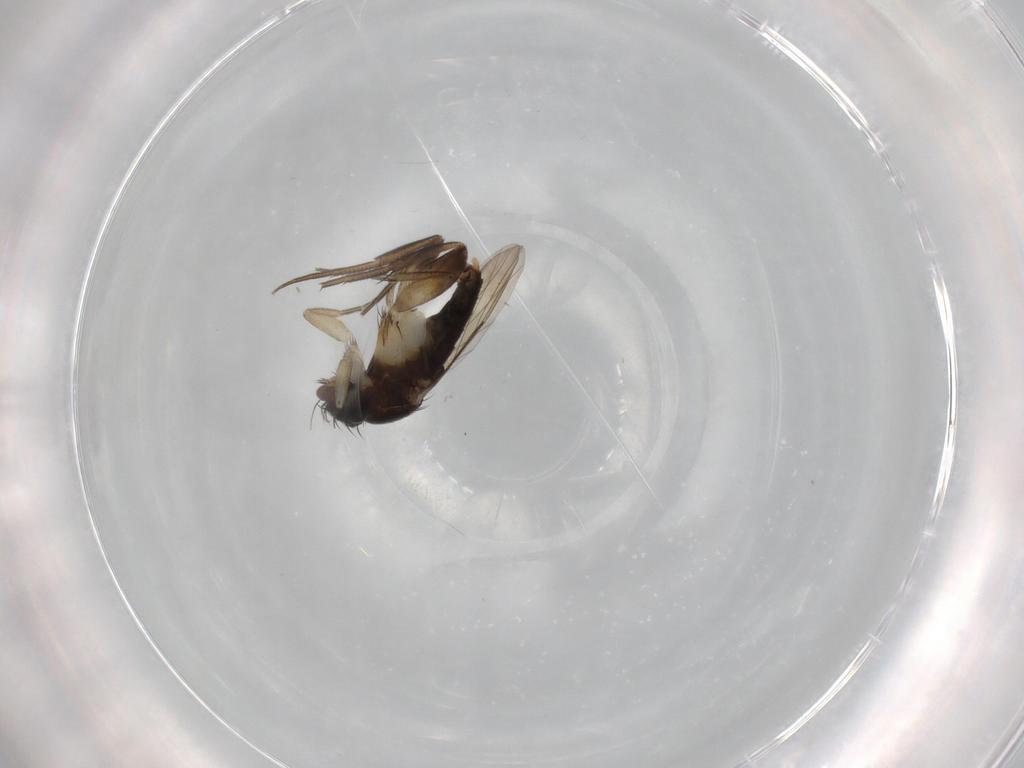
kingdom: Animalia
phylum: Arthropoda
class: Insecta
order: Diptera
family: Phoridae
